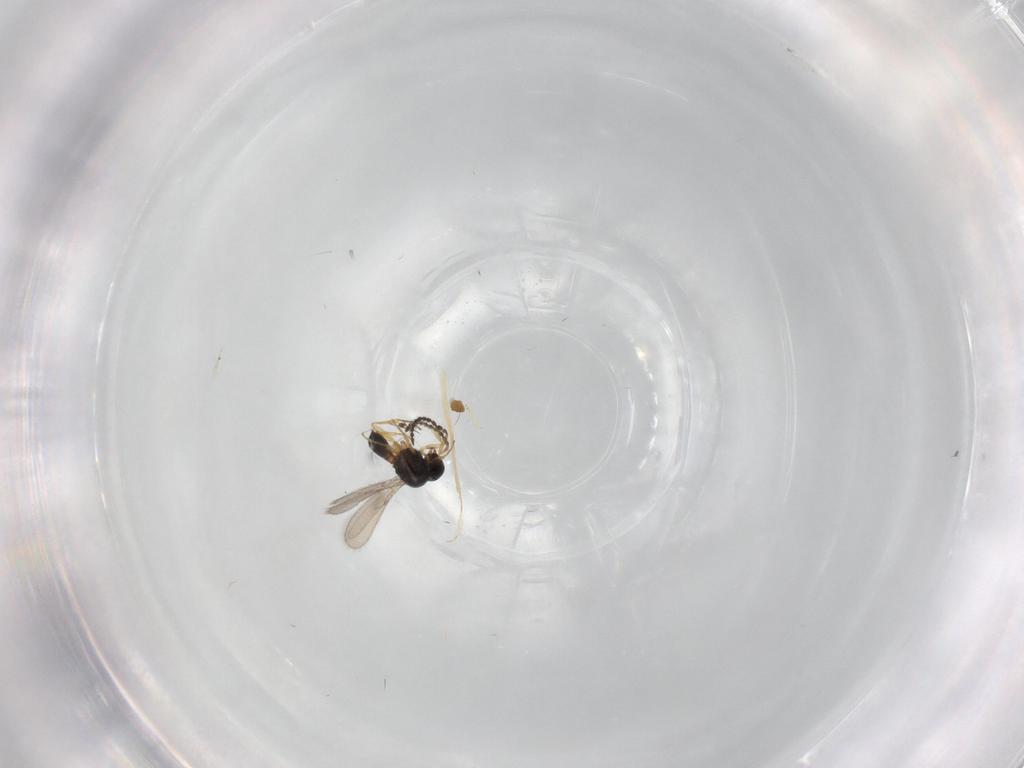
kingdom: Animalia
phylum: Arthropoda
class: Insecta
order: Hymenoptera
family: Scelionidae
